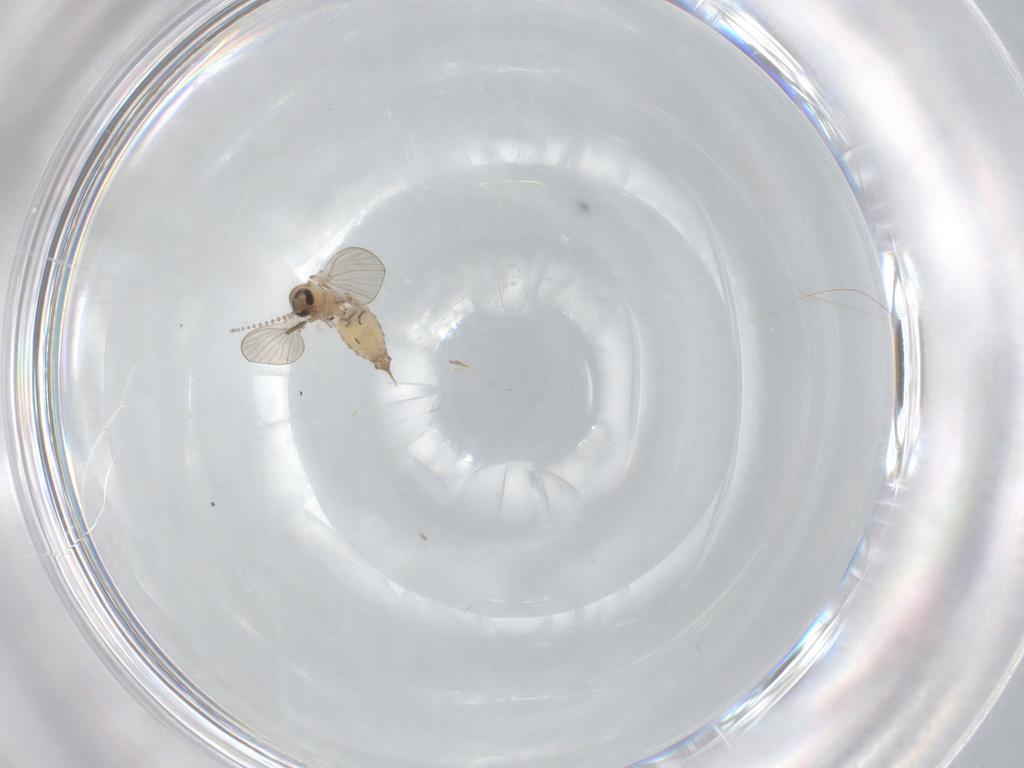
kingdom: Animalia
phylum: Arthropoda
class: Insecta
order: Diptera
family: Psychodidae
